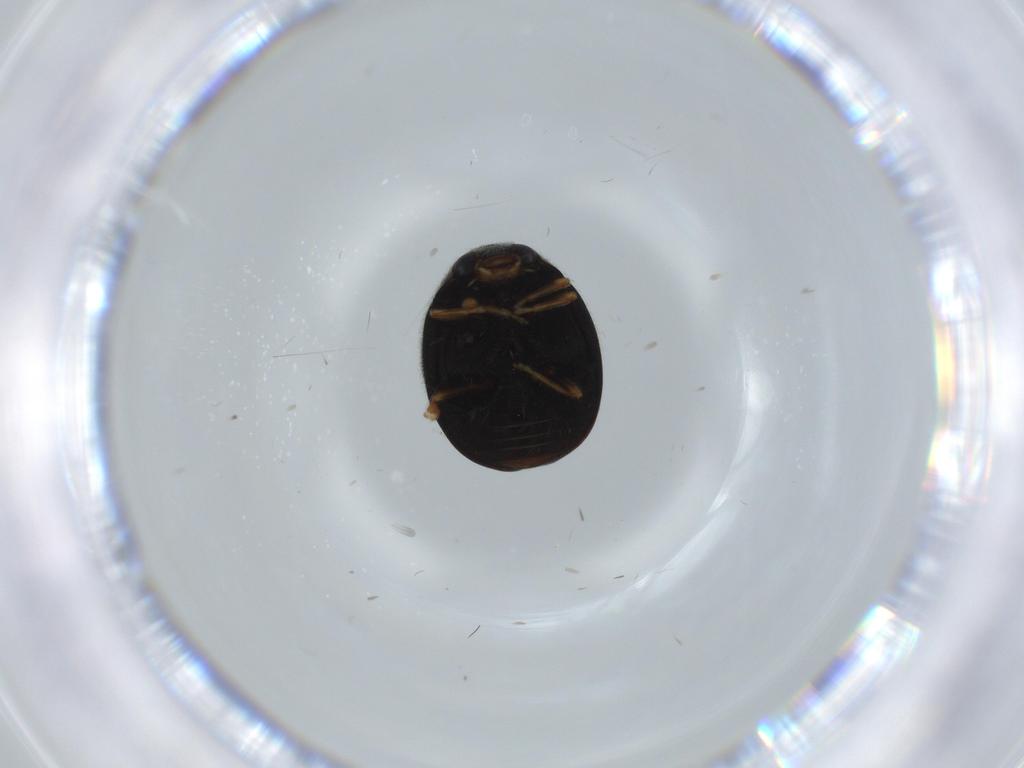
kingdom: Animalia
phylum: Arthropoda
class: Insecta
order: Coleoptera
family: Coccinellidae
